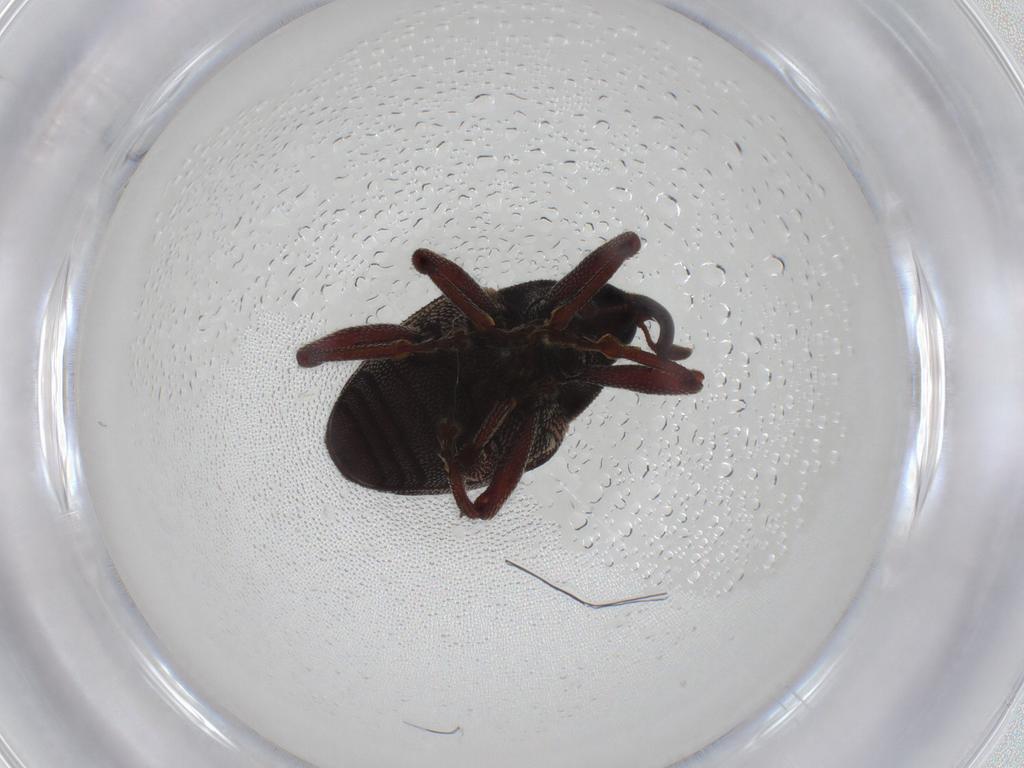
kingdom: Animalia
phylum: Arthropoda
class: Insecta
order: Coleoptera
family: Curculionidae
